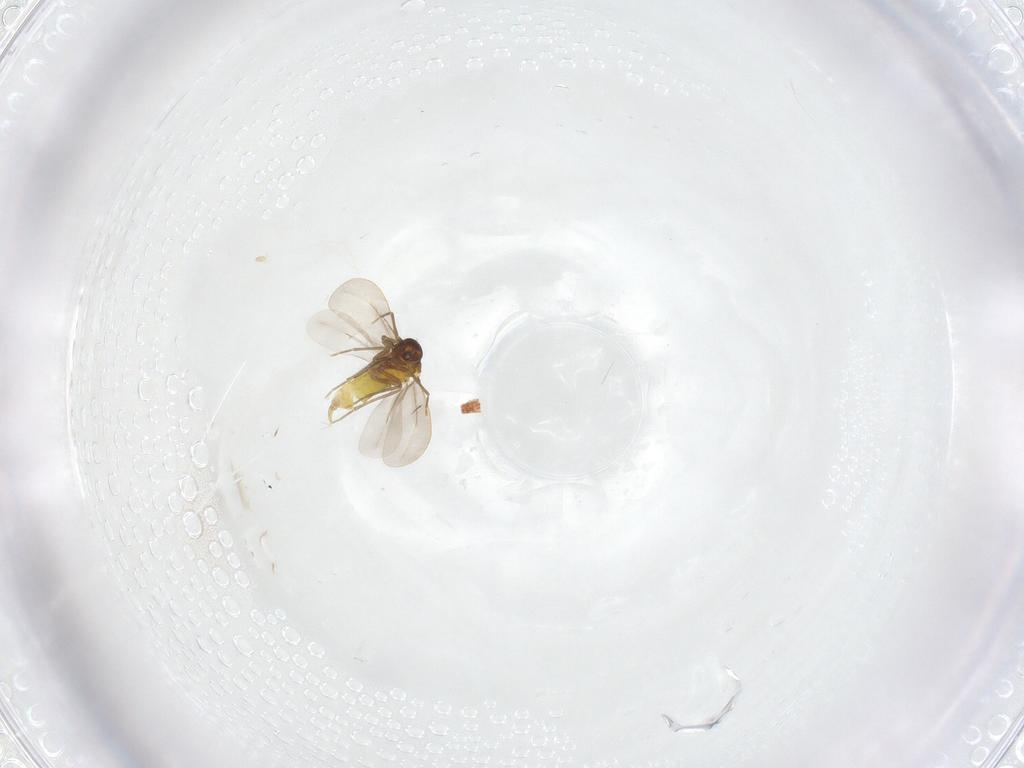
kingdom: Animalia
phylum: Arthropoda
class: Insecta
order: Hemiptera
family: Aleyrodidae
